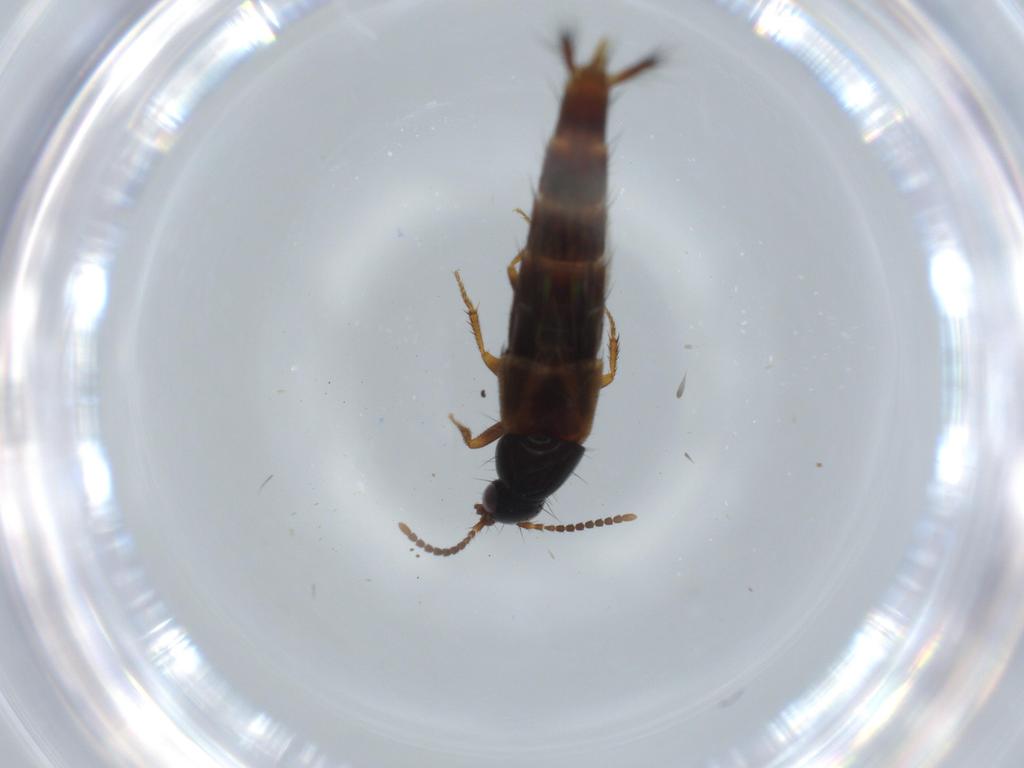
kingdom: Animalia
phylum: Arthropoda
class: Insecta
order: Coleoptera
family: Staphylinidae
